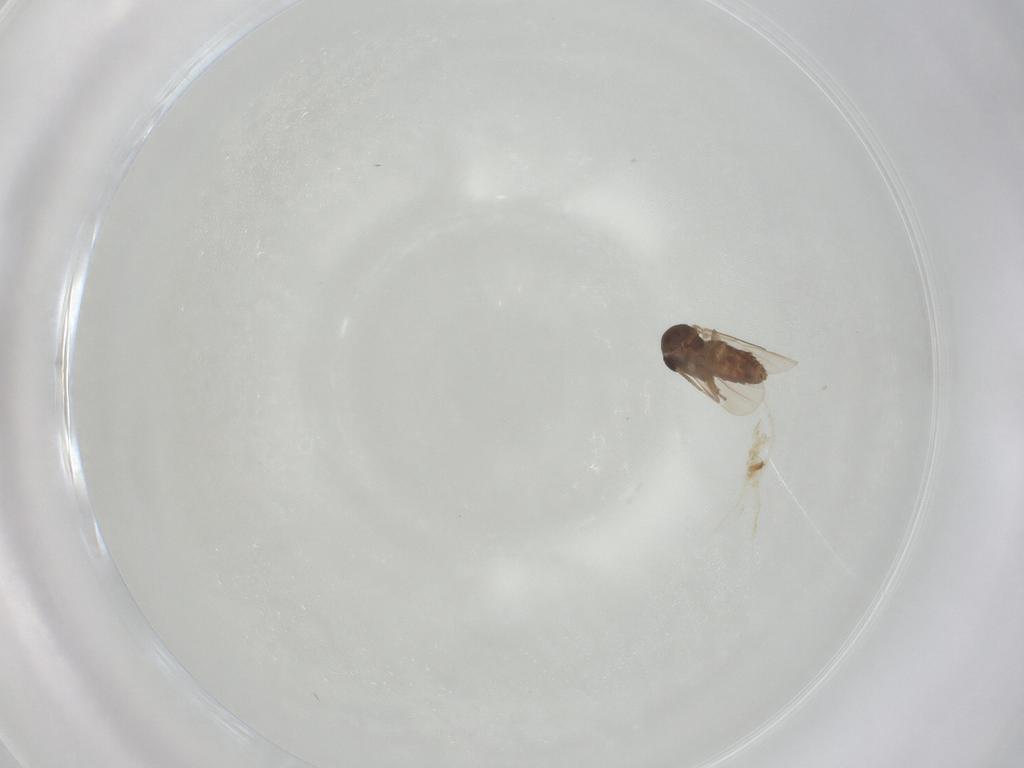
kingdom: Animalia
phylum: Arthropoda
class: Insecta
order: Diptera
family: Ceratopogonidae
